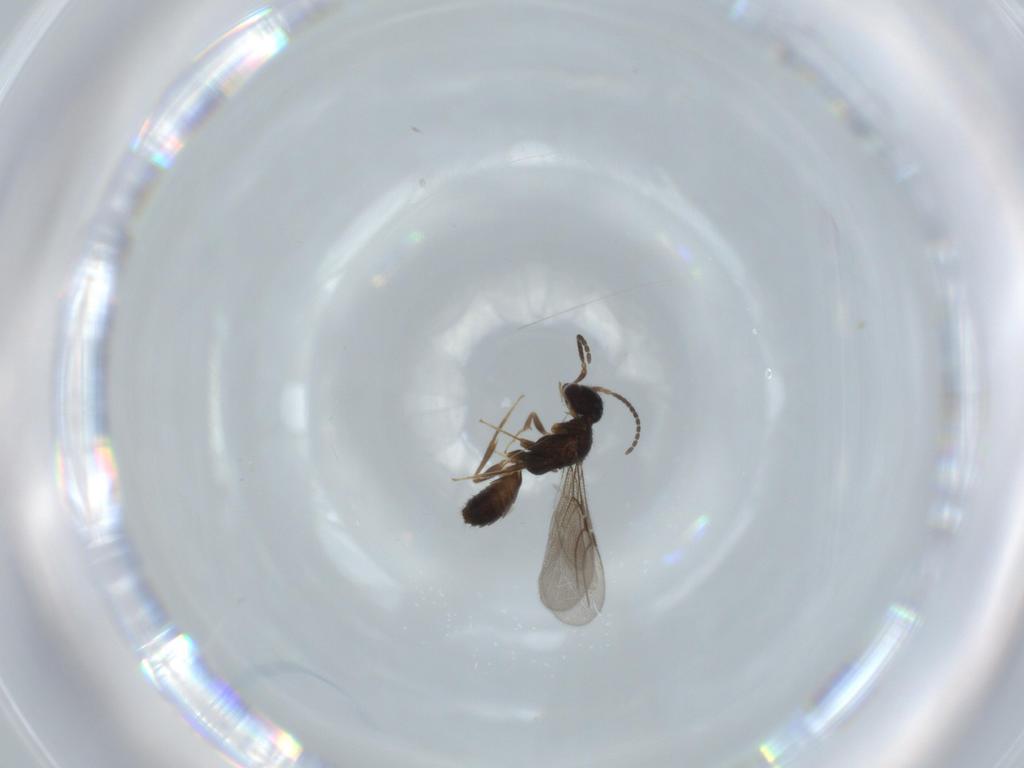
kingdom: Animalia
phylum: Arthropoda
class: Insecta
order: Hymenoptera
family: Bethylidae
